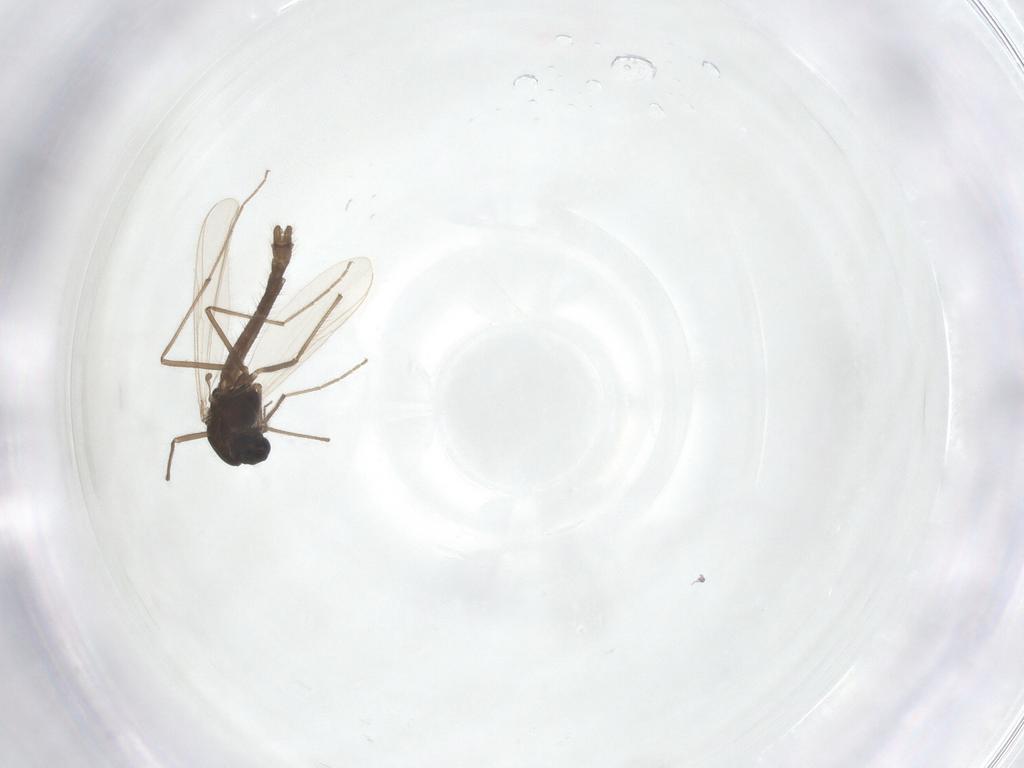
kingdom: Animalia
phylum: Arthropoda
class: Insecta
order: Diptera
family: Chironomidae
